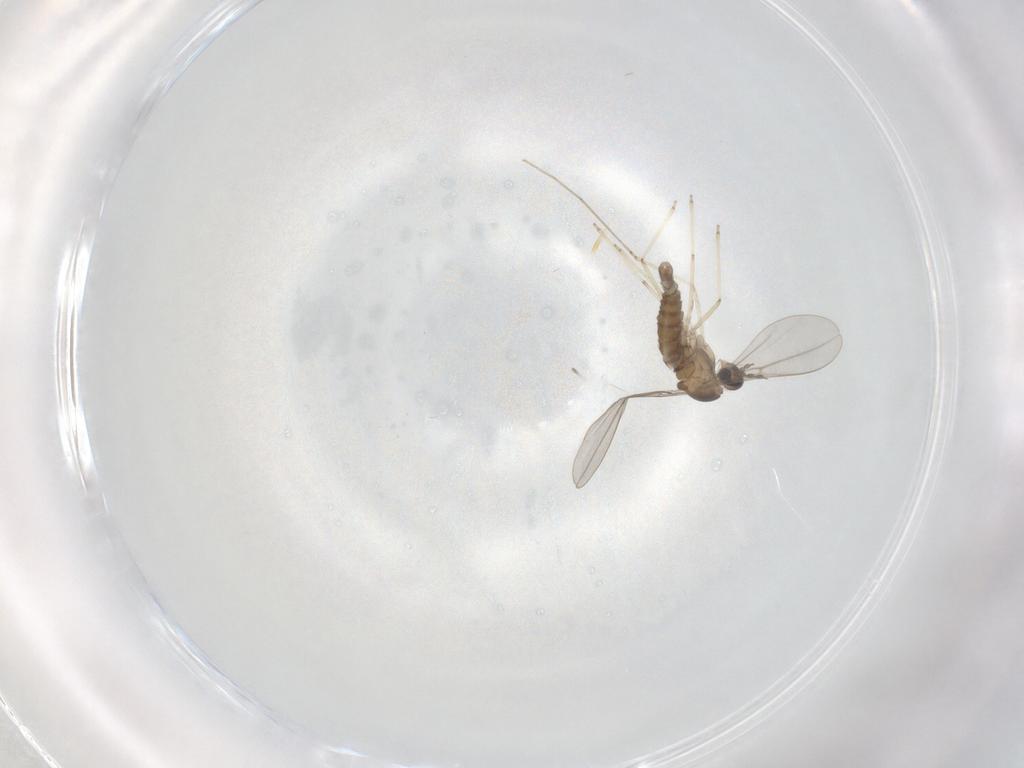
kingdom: Animalia
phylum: Arthropoda
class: Insecta
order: Diptera
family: Cecidomyiidae
